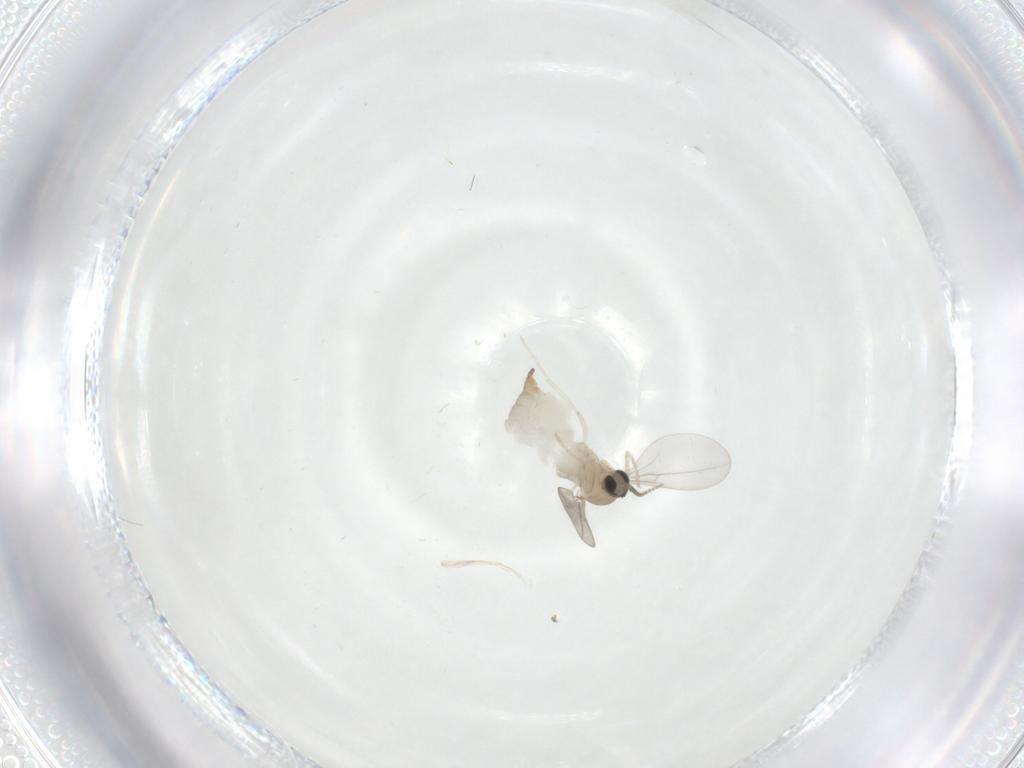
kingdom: Animalia
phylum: Arthropoda
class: Insecta
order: Diptera
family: Cecidomyiidae
